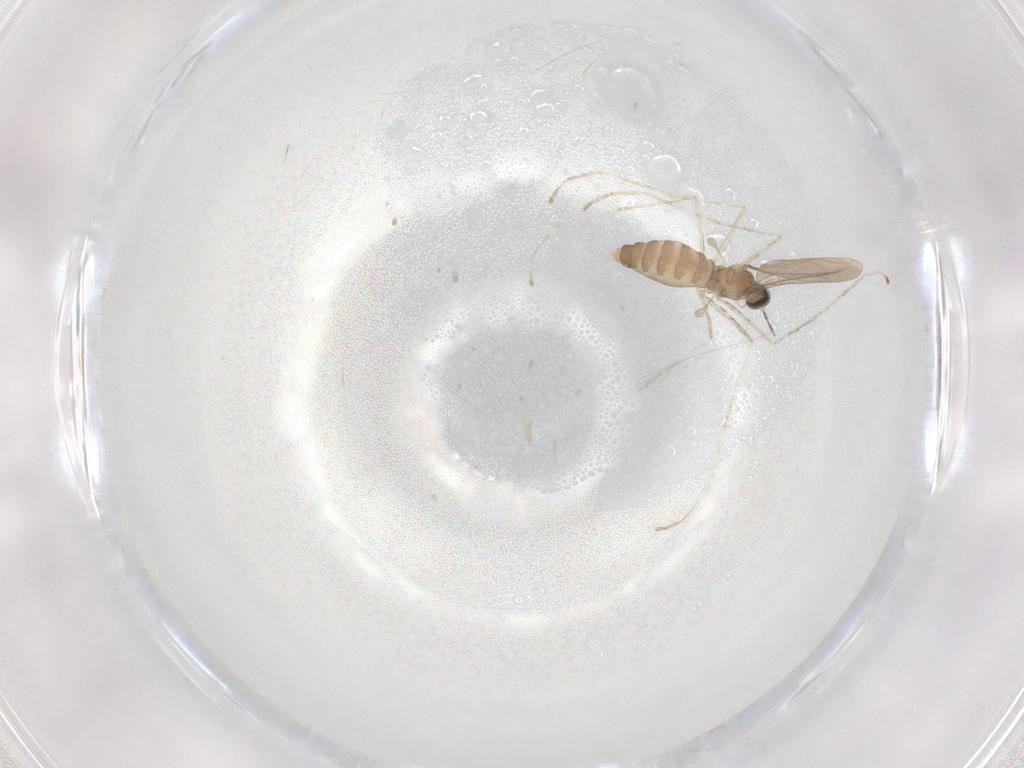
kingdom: Animalia
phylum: Arthropoda
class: Insecta
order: Diptera
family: Cecidomyiidae
